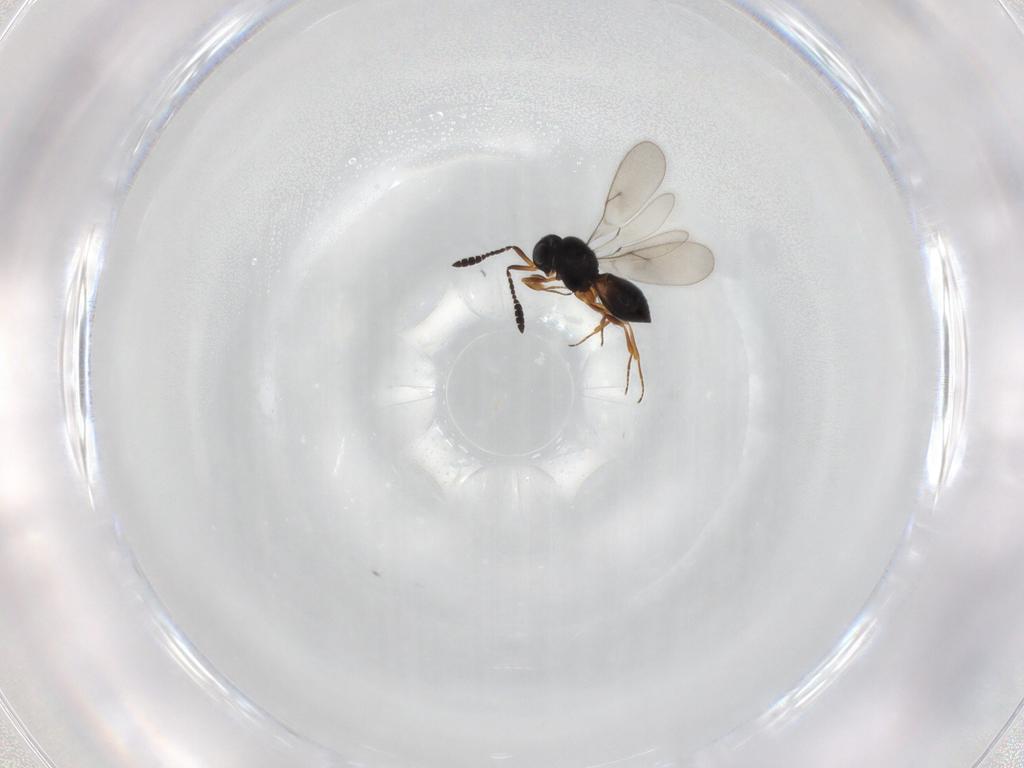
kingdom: Animalia
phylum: Arthropoda
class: Insecta
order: Hymenoptera
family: Scelionidae
